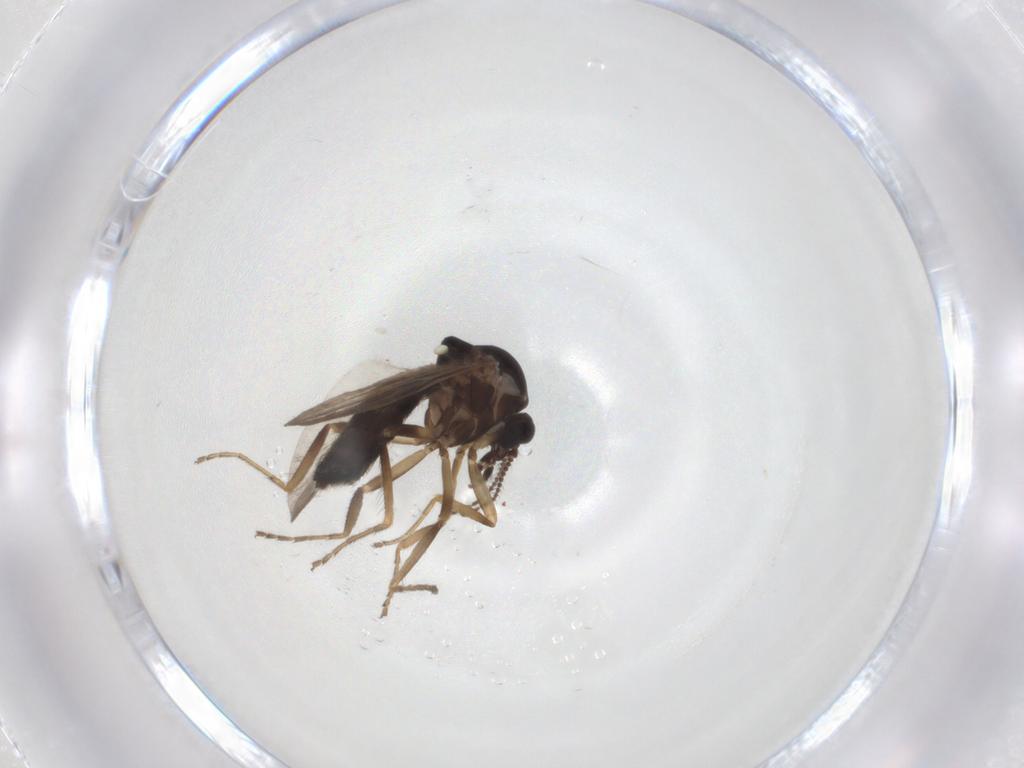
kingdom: Animalia
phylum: Arthropoda
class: Insecta
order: Diptera
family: Ceratopogonidae
